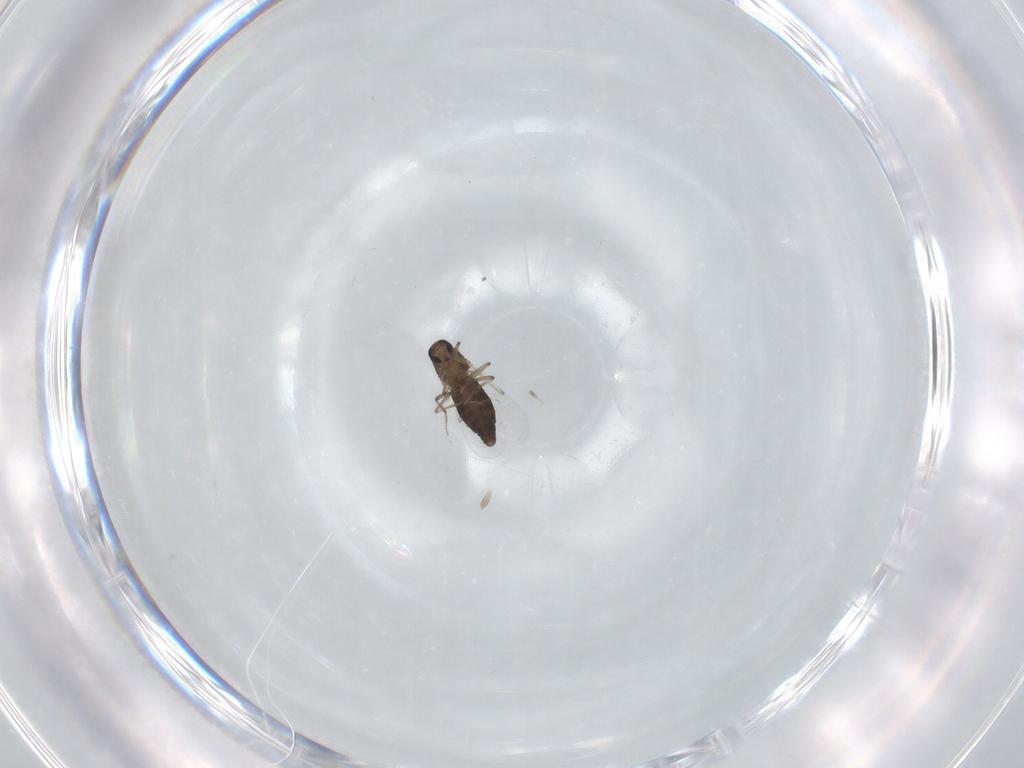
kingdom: Animalia
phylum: Arthropoda
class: Insecta
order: Diptera
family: Ceratopogonidae
